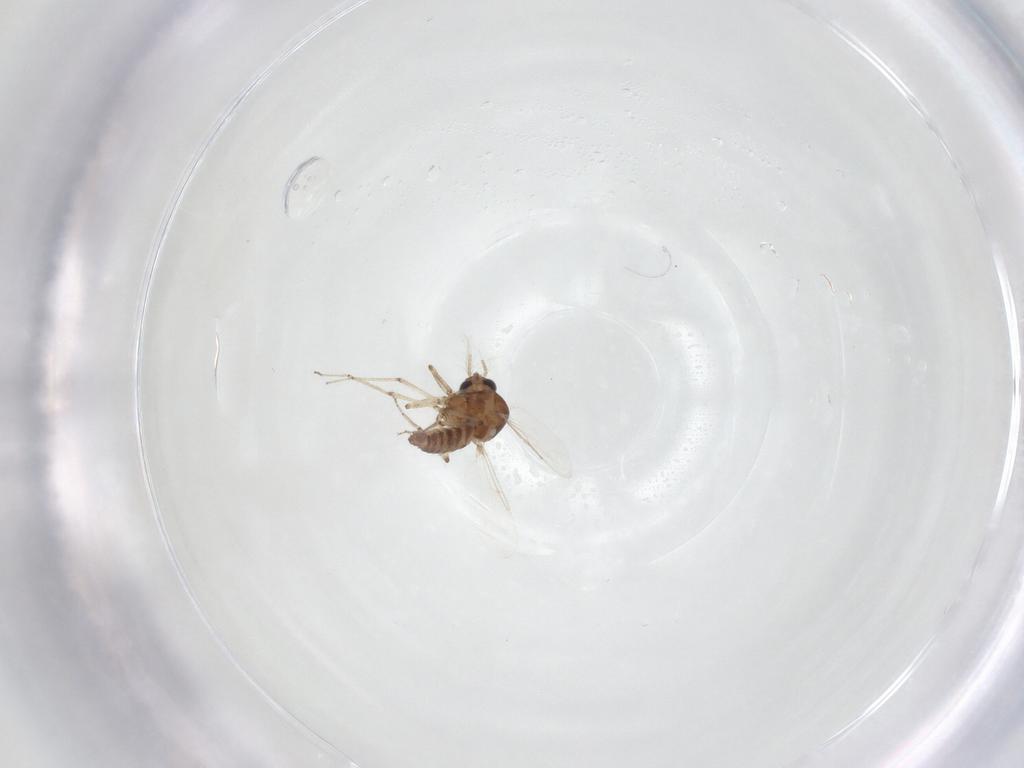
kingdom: Animalia
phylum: Arthropoda
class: Insecta
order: Diptera
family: Ceratopogonidae
